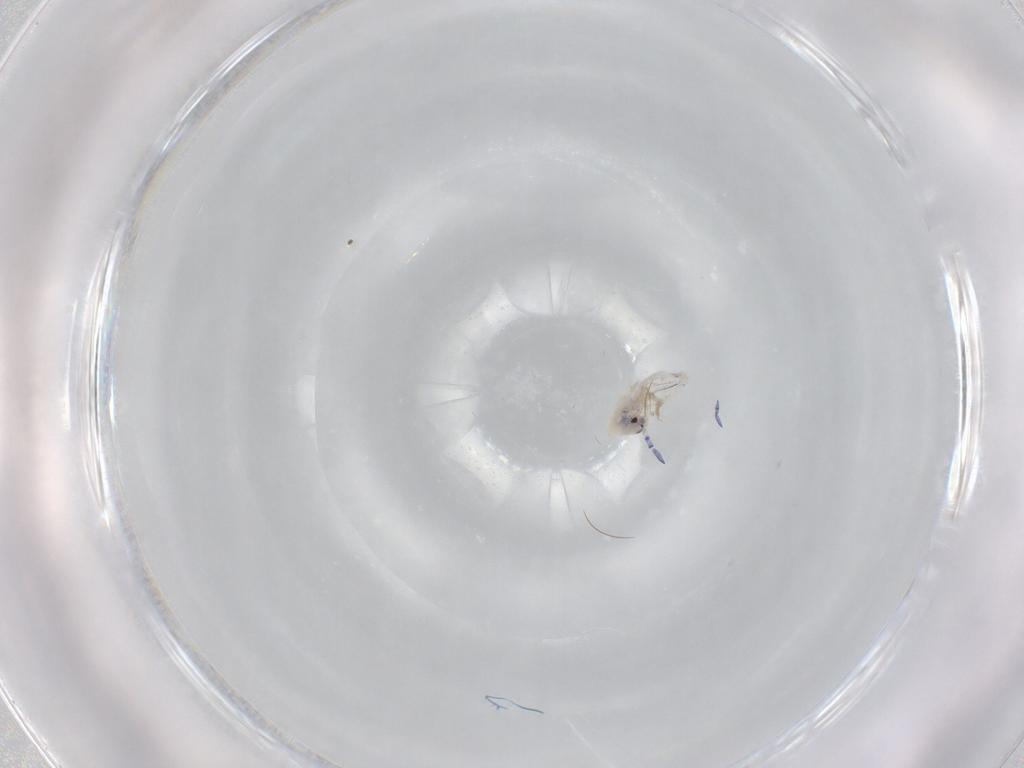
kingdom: Animalia
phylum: Arthropoda
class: Collembola
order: Entomobryomorpha
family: Entomobryidae
